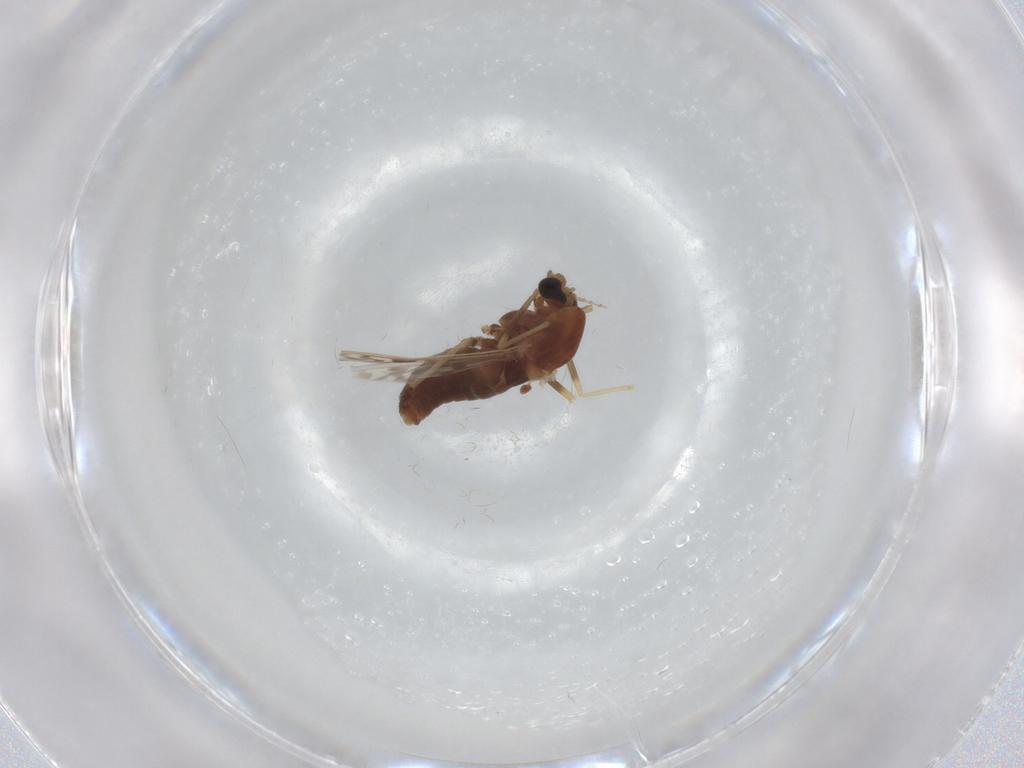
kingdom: Animalia
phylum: Arthropoda
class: Insecta
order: Diptera
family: Chironomidae
